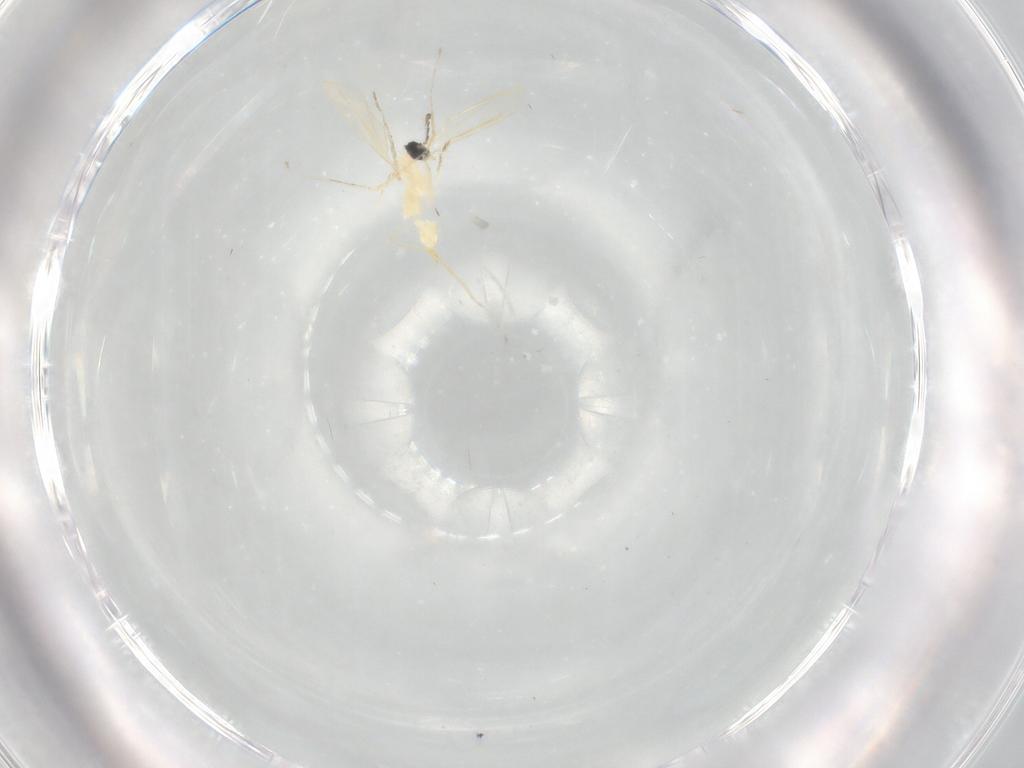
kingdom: Animalia
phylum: Arthropoda
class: Insecta
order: Diptera
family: Cecidomyiidae
